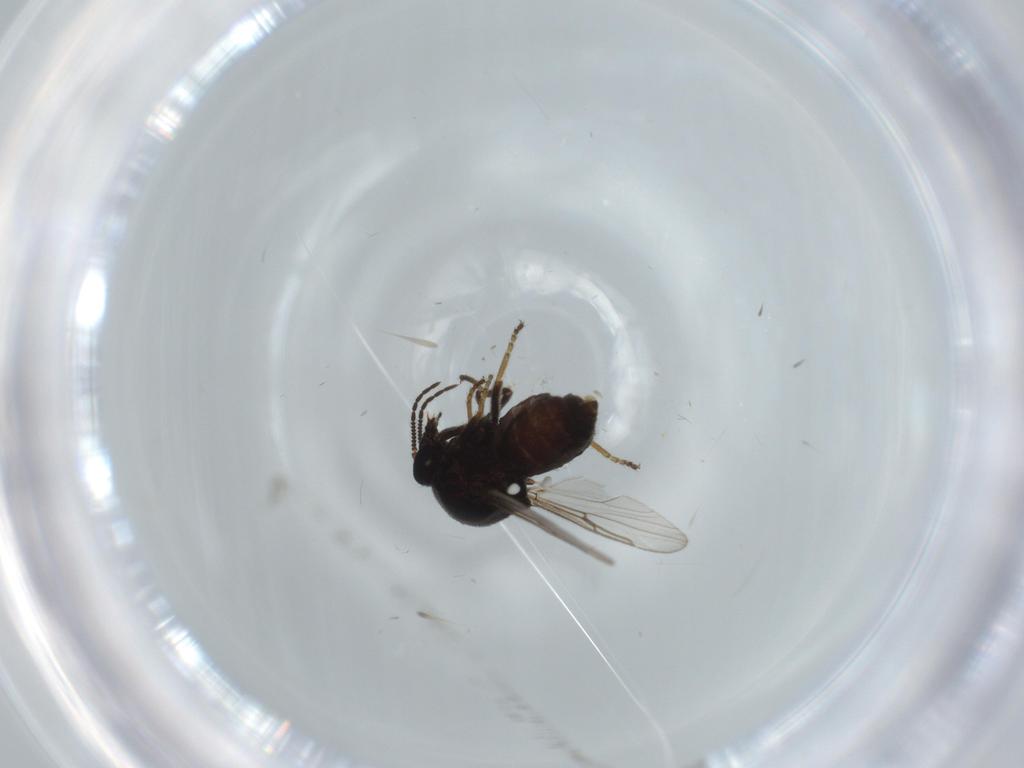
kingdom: Animalia
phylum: Arthropoda
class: Insecta
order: Diptera
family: Ceratopogonidae
